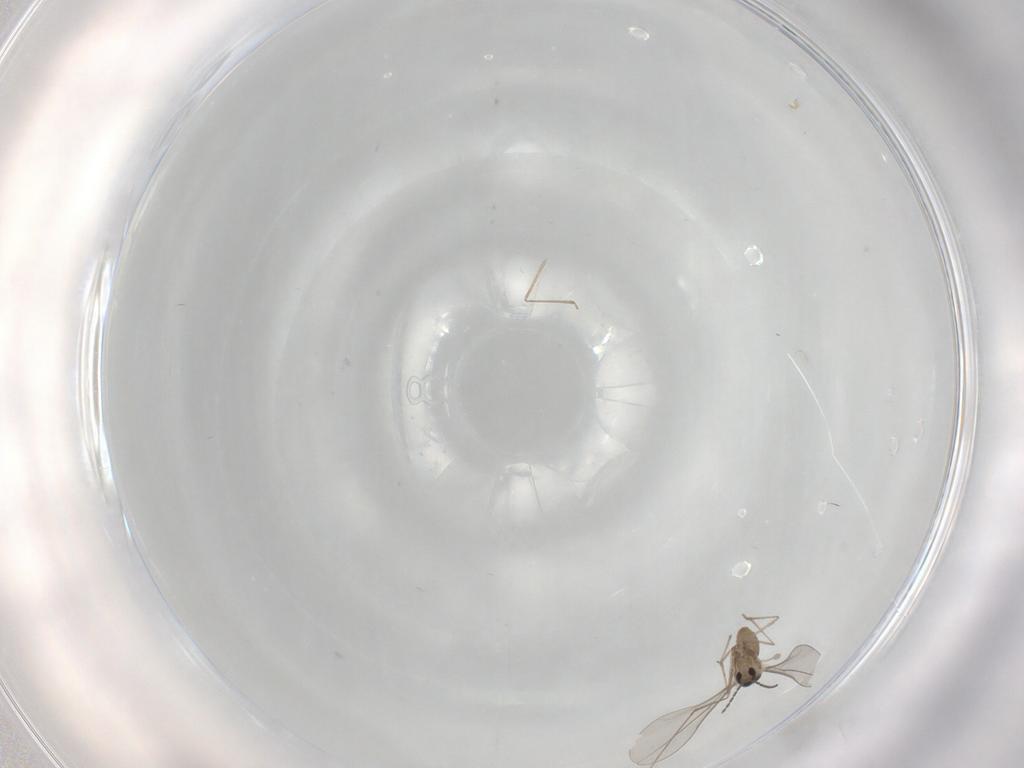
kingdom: Animalia
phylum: Arthropoda
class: Insecta
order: Diptera
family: Cecidomyiidae
